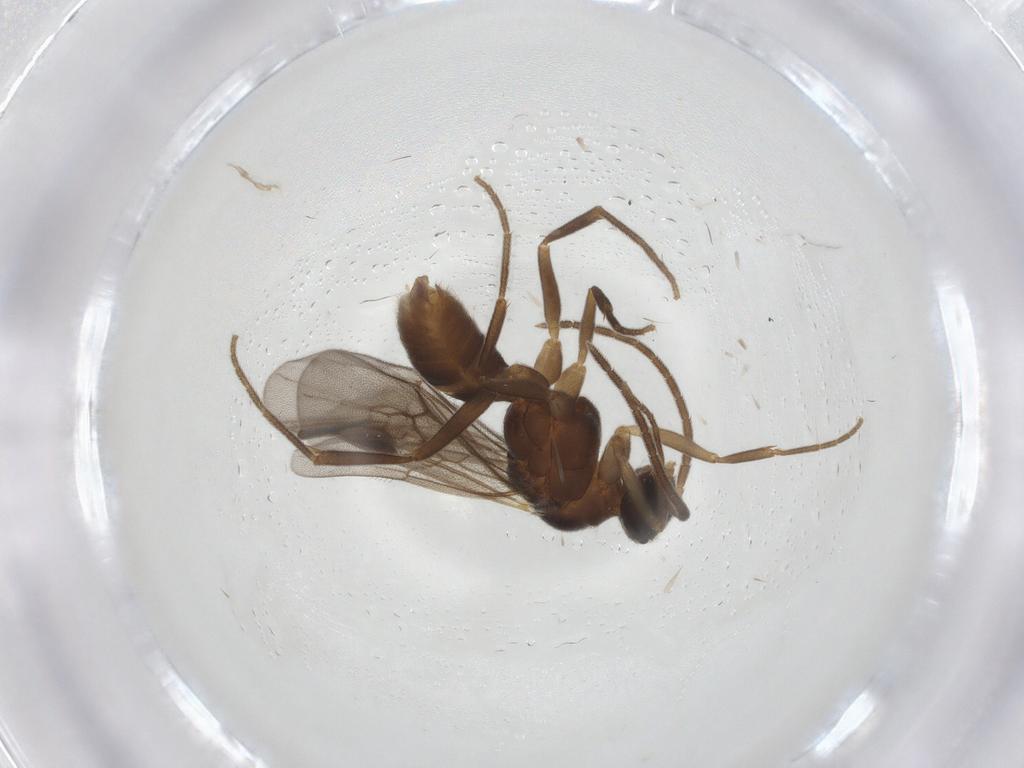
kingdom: Animalia
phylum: Arthropoda
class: Insecta
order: Hymenoptera
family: Formicidae
